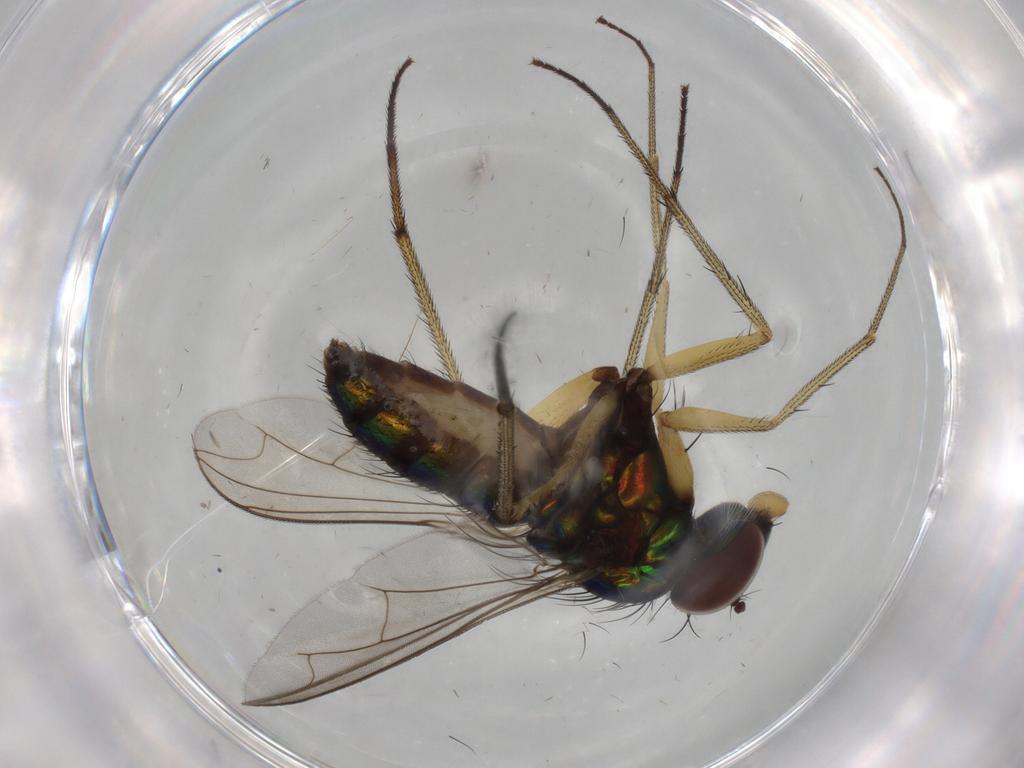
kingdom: Animalia
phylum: Arthropoda
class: Insecta
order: Diptera
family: Dolichopodidae
